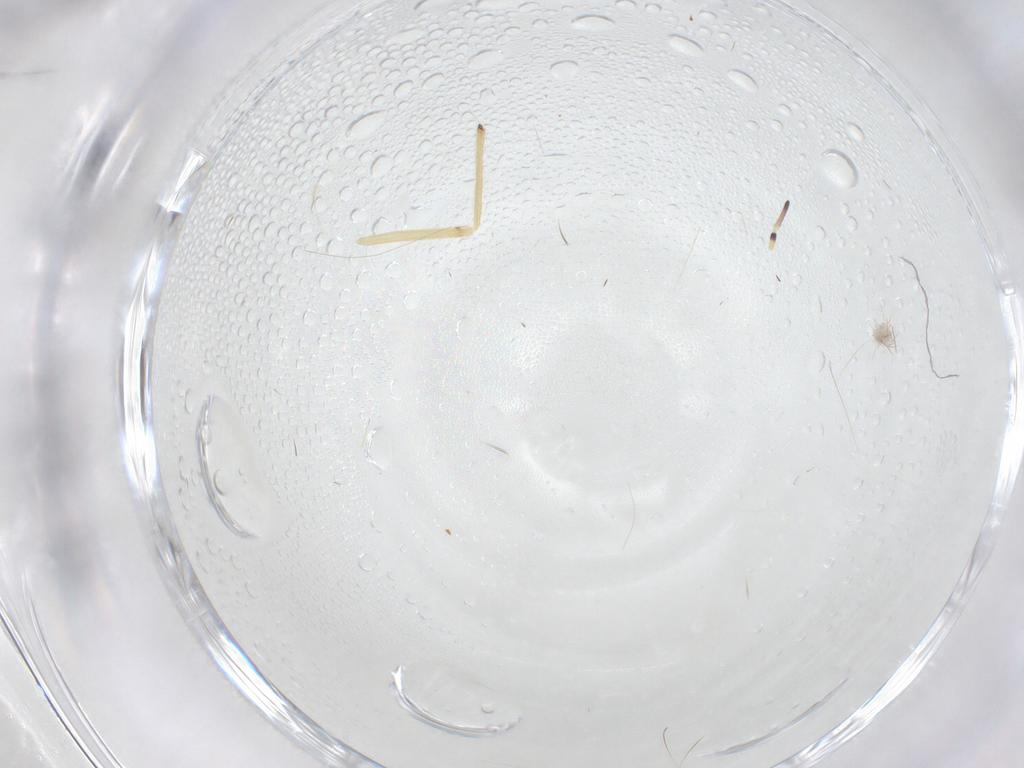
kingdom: Animalia
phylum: Arthropoda
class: Insecta
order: Diptera
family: Chironomidae
